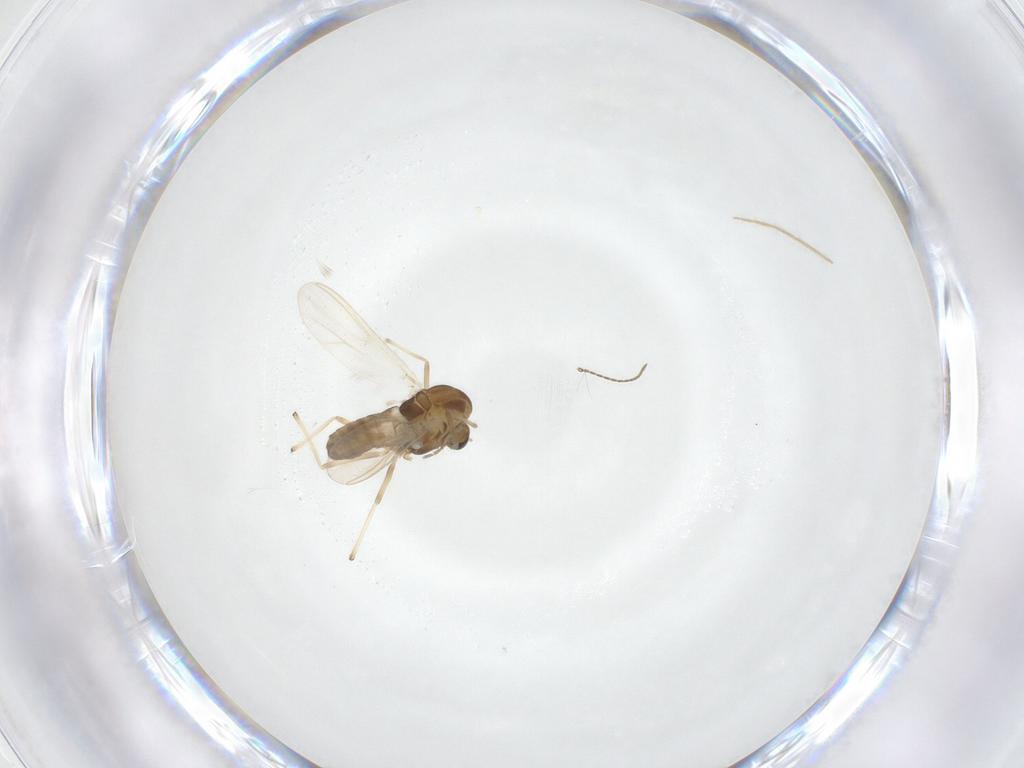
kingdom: Animalia
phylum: Arthropoda
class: Insecta
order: Diptera
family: Chironomidae
